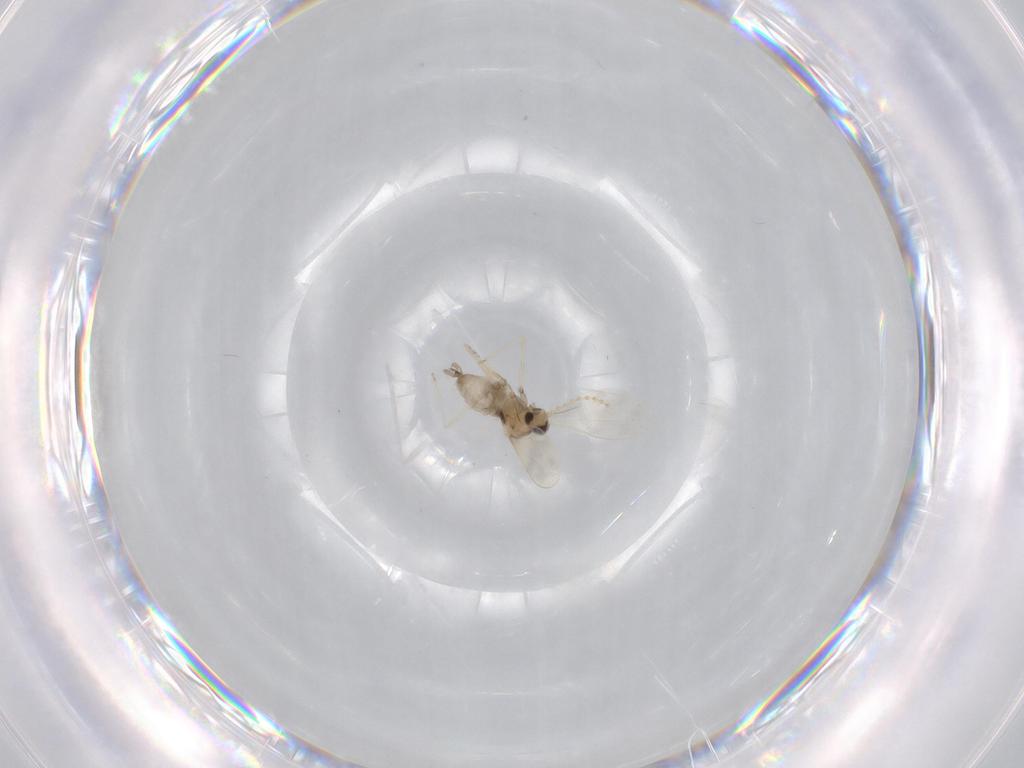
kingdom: Animalia
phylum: Arthropoda
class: Insecta
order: Diptera
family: Cecidomyiidae
